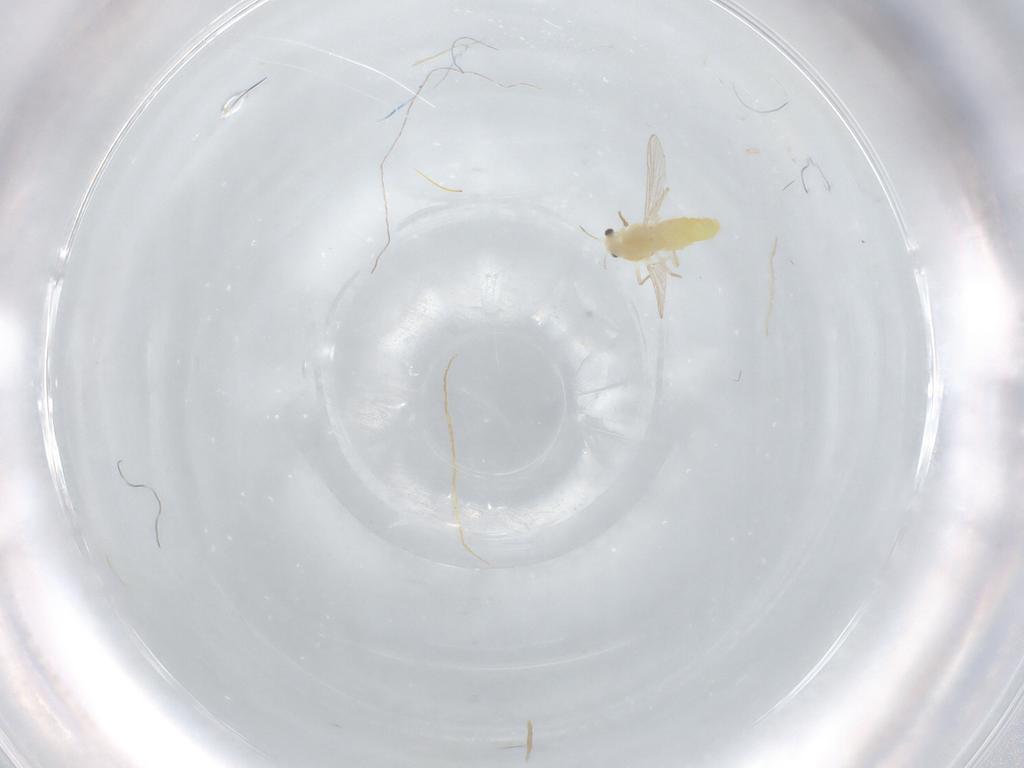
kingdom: Animalia
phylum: Arthropoda
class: Insecta
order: Diptera
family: Chironomidae
